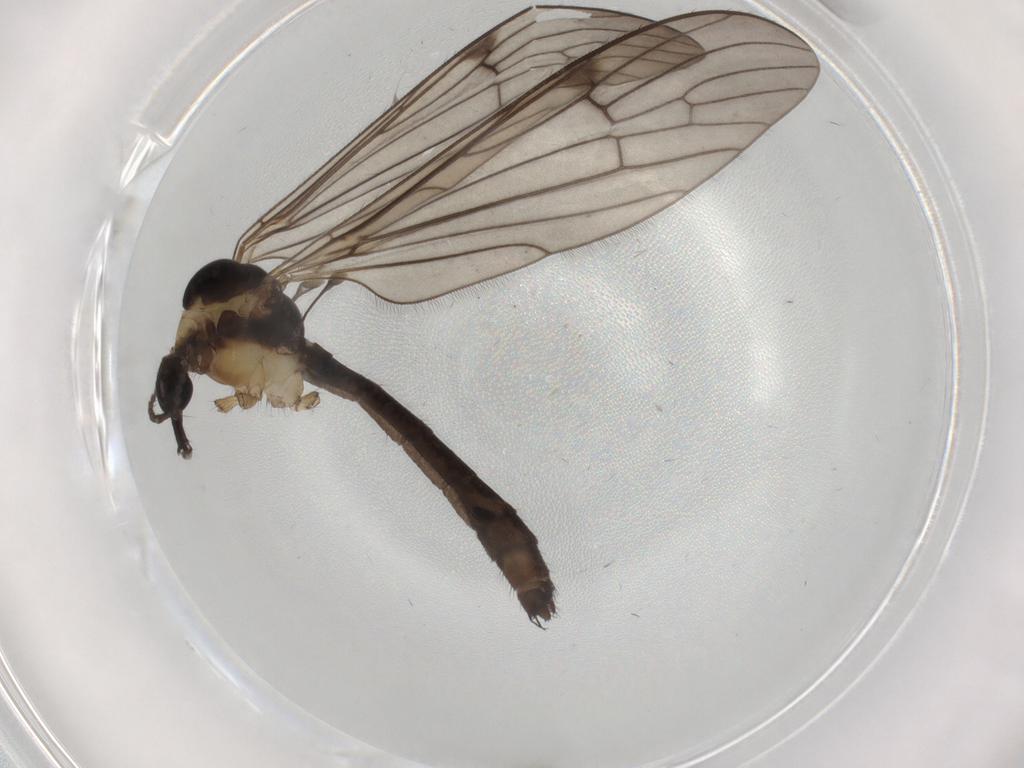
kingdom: Animalia
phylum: Arthropoda
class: Insecta
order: Diptera
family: Limoniidae
